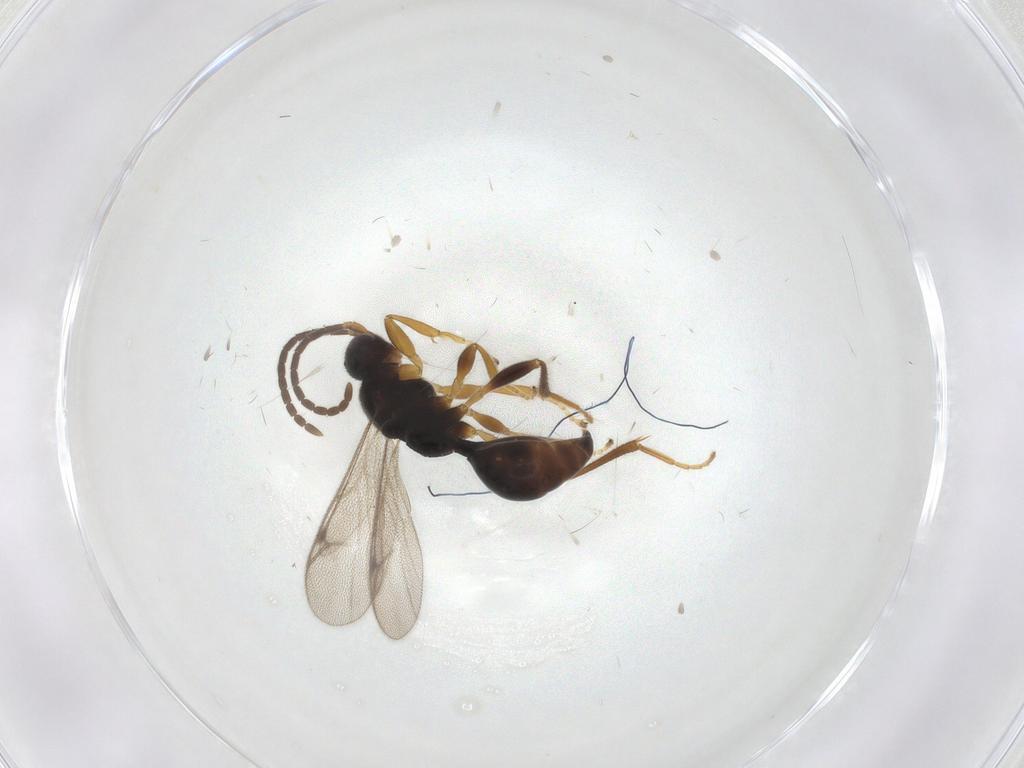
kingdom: Animalia
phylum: Arthropoda
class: Insecta
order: Hymenoptera
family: Proctotrupidae
